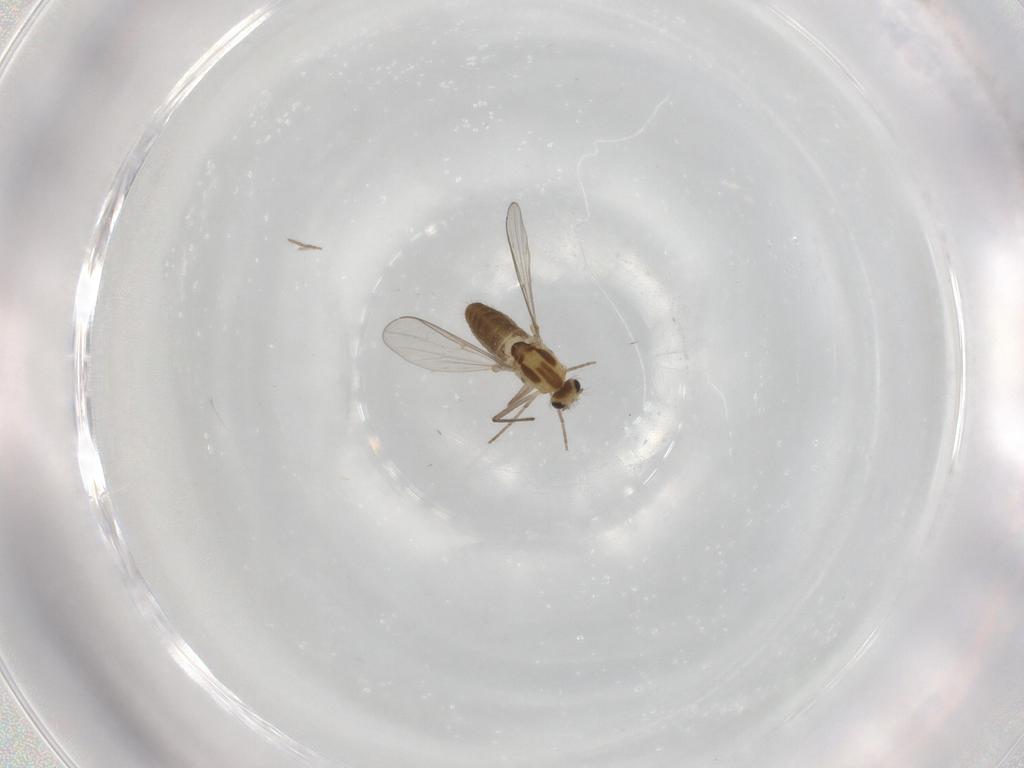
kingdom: Animalia
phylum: Arthropoda
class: Insecta
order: Diptera
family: Chironomidae
